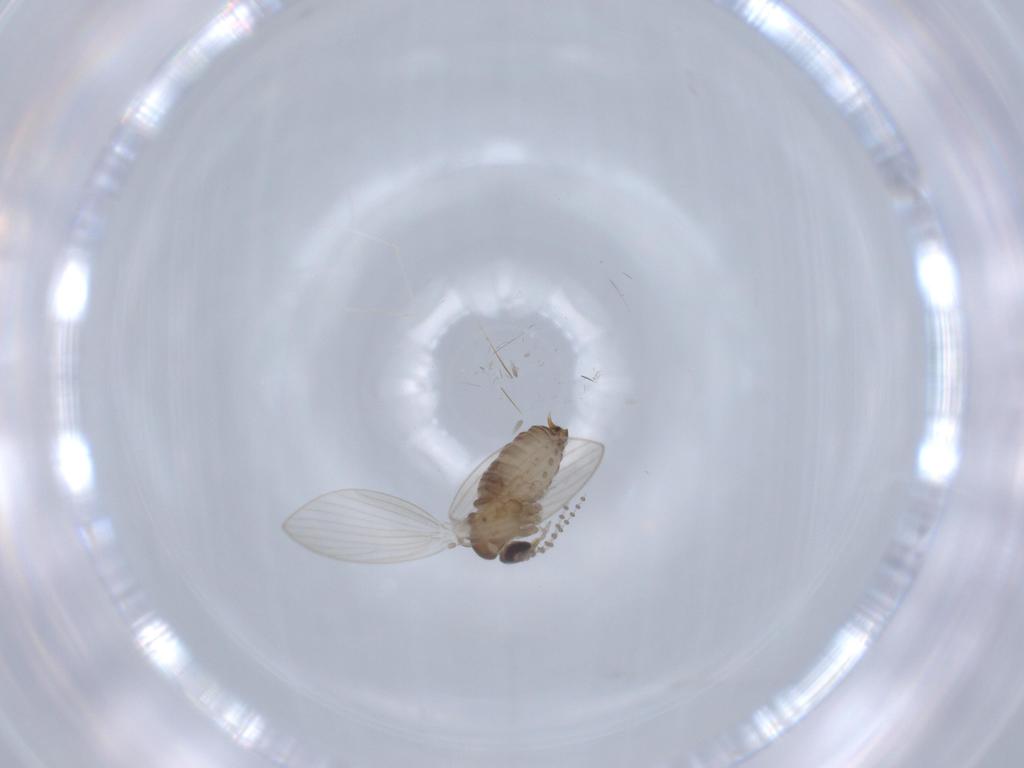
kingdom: Animalia
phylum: Arthropoda
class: Insecta
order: Diptera
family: Psychodidae
